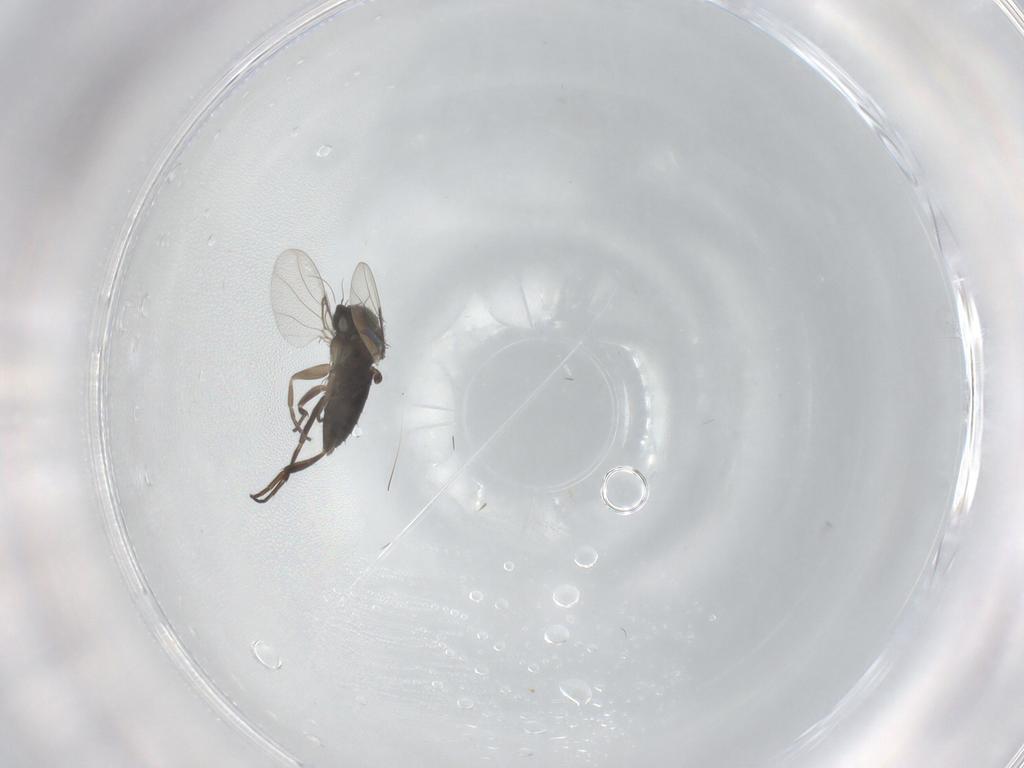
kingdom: Animalia
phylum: Arthropoda
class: Insecta
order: Diptera
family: Phoridae
